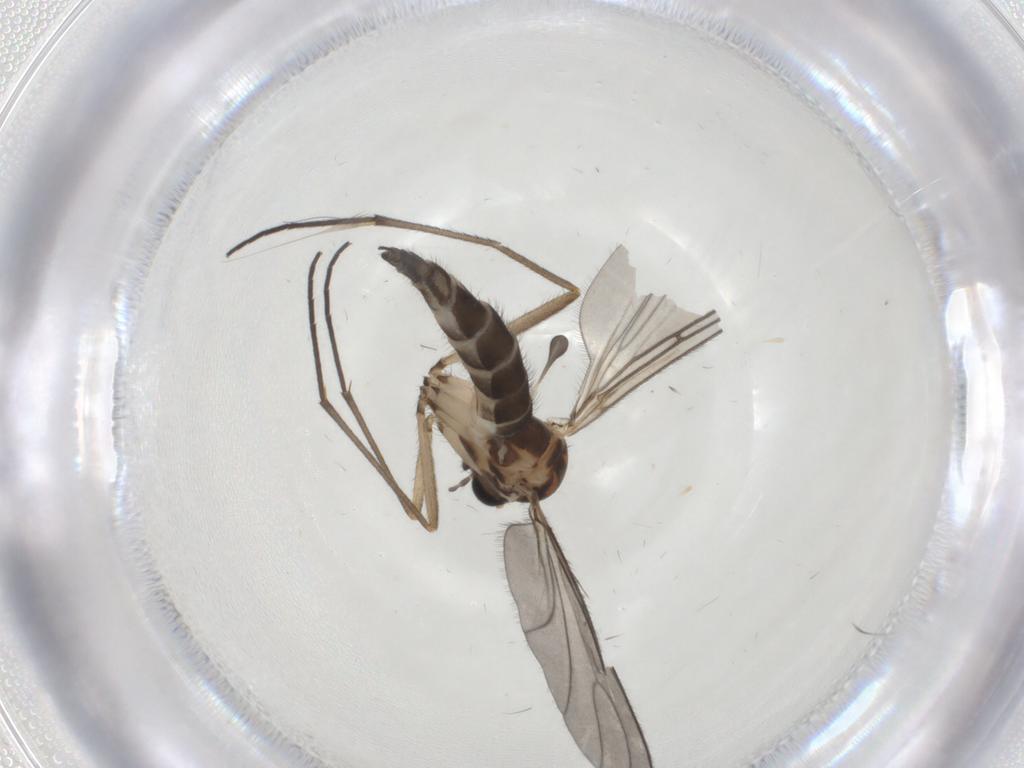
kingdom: Animalia
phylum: Arthropoda
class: Insecta
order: Diptera
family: Sciaridae
